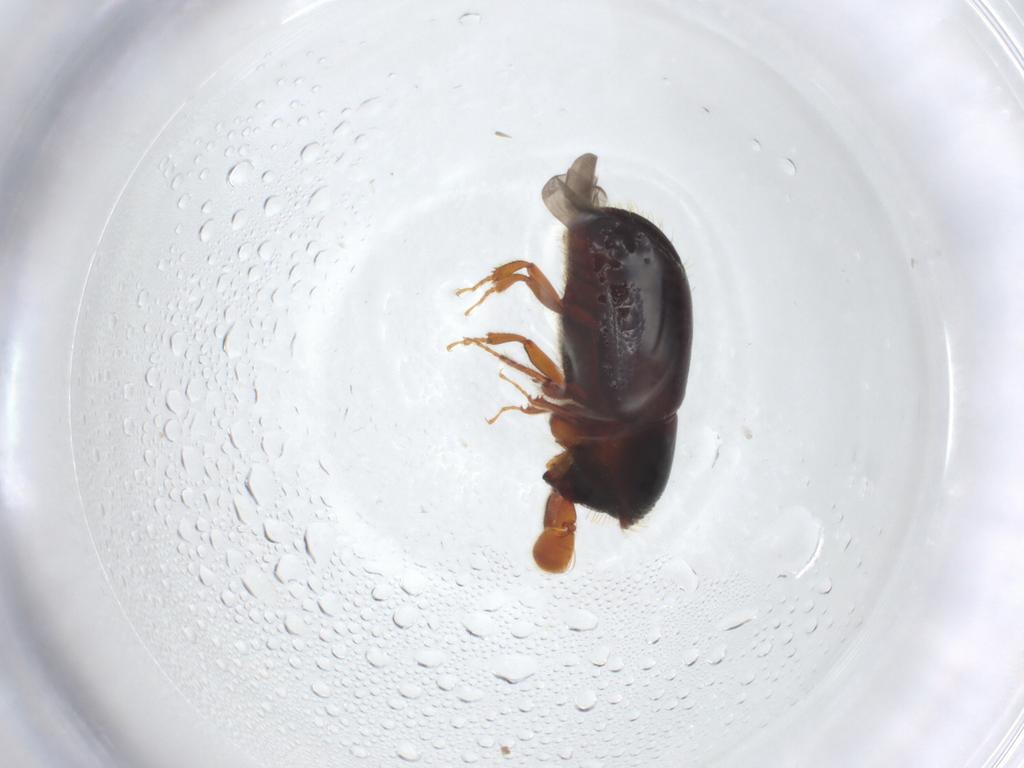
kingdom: Animalia
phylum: Arthropoda
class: Insecta
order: Coleoptera
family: Curculionidae
